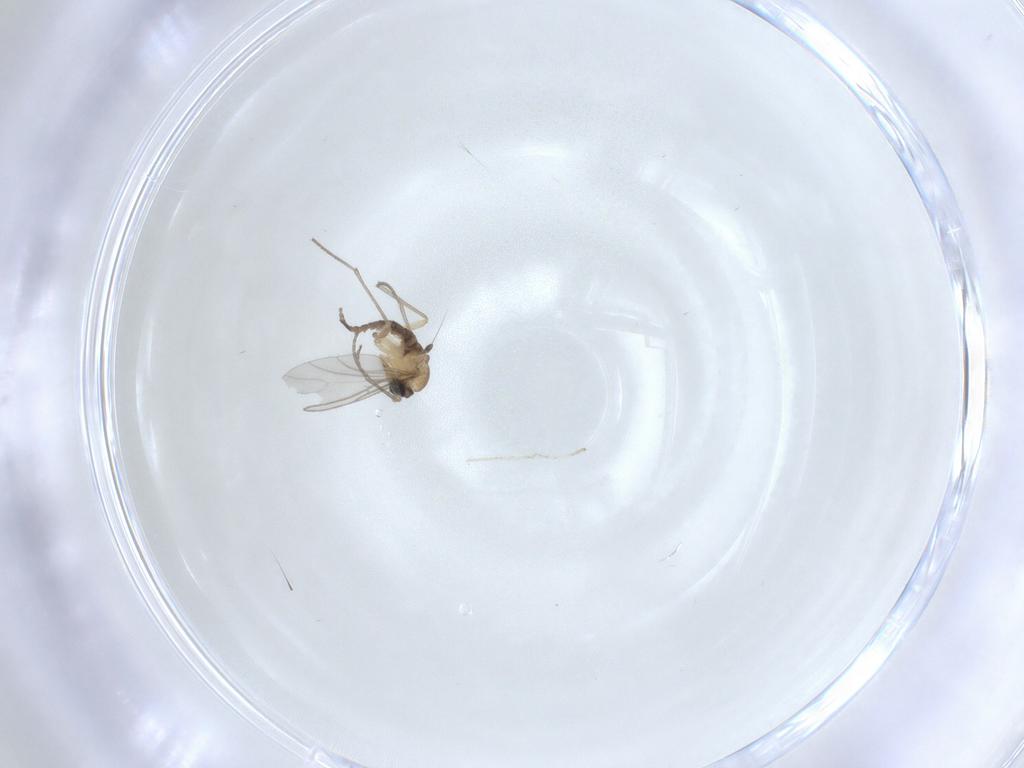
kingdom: Animalia
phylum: Arthropoda
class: Insecta
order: Diptera
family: Sciaridae
